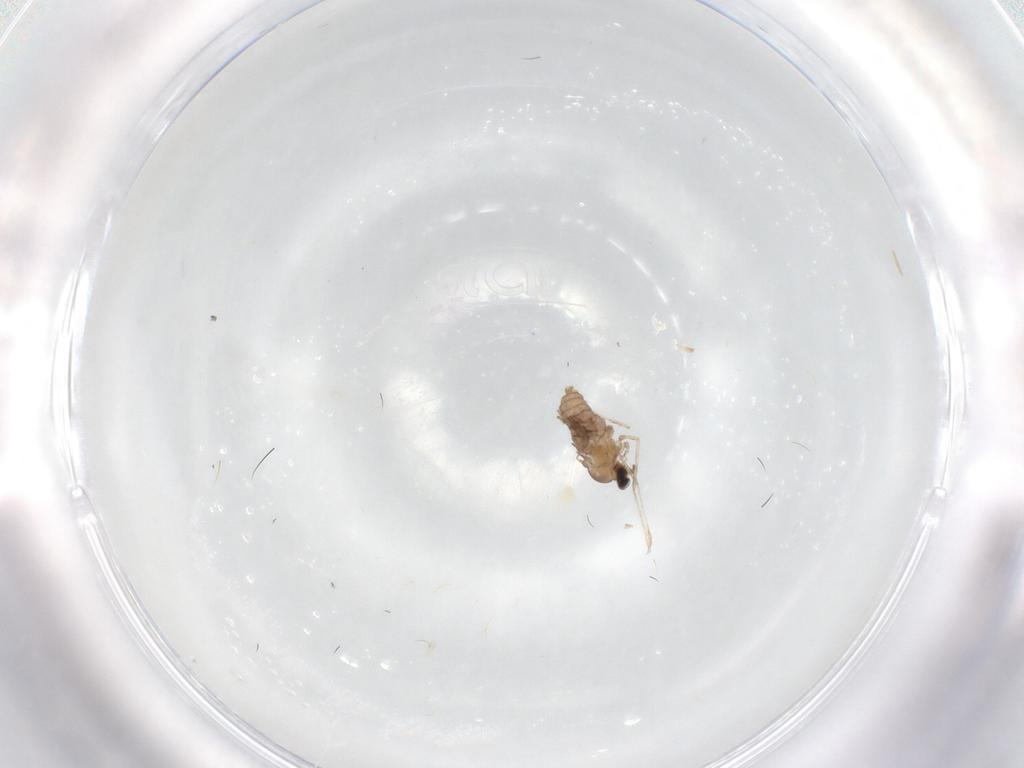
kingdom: Animalia
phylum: Arthropoda
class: Insecta
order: Diptera
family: Cecidomyiidae
